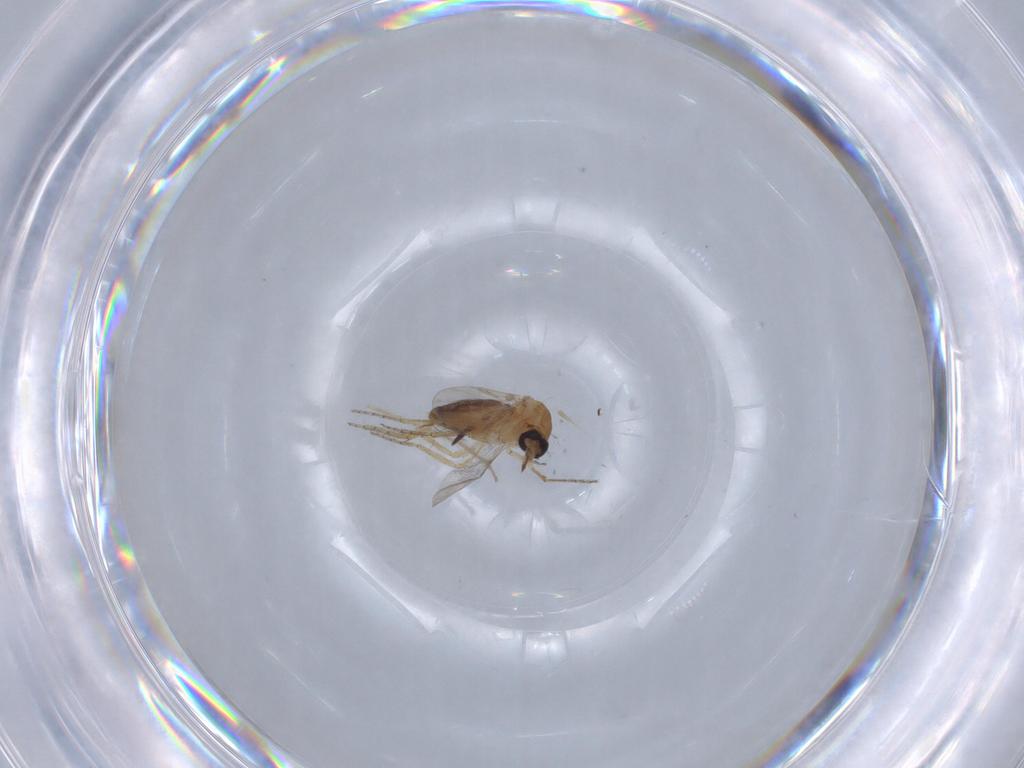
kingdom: Animalia
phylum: Arthropoda
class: Insecta
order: Diptera
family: Ceratopogonidae
